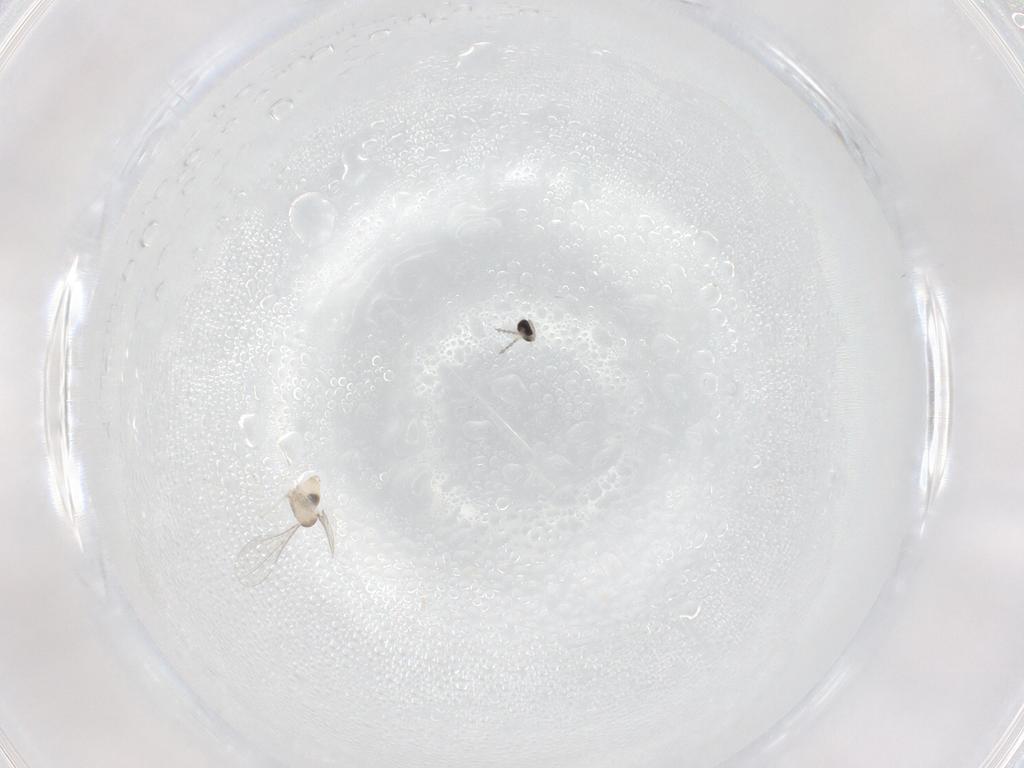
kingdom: Animalia
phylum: Arthropoda
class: Insecta
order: Diptera
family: Cecidomyiidae
